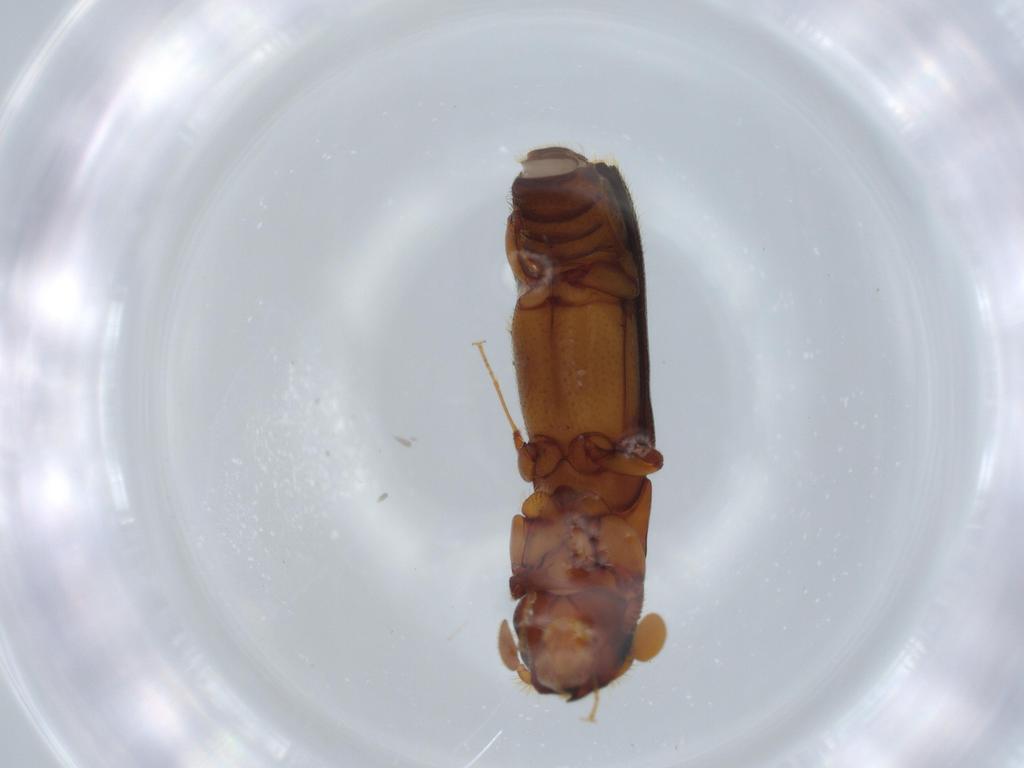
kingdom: Animalia
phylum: Arthropoda
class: Insecta
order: Coleoptera
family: Curculionidae
